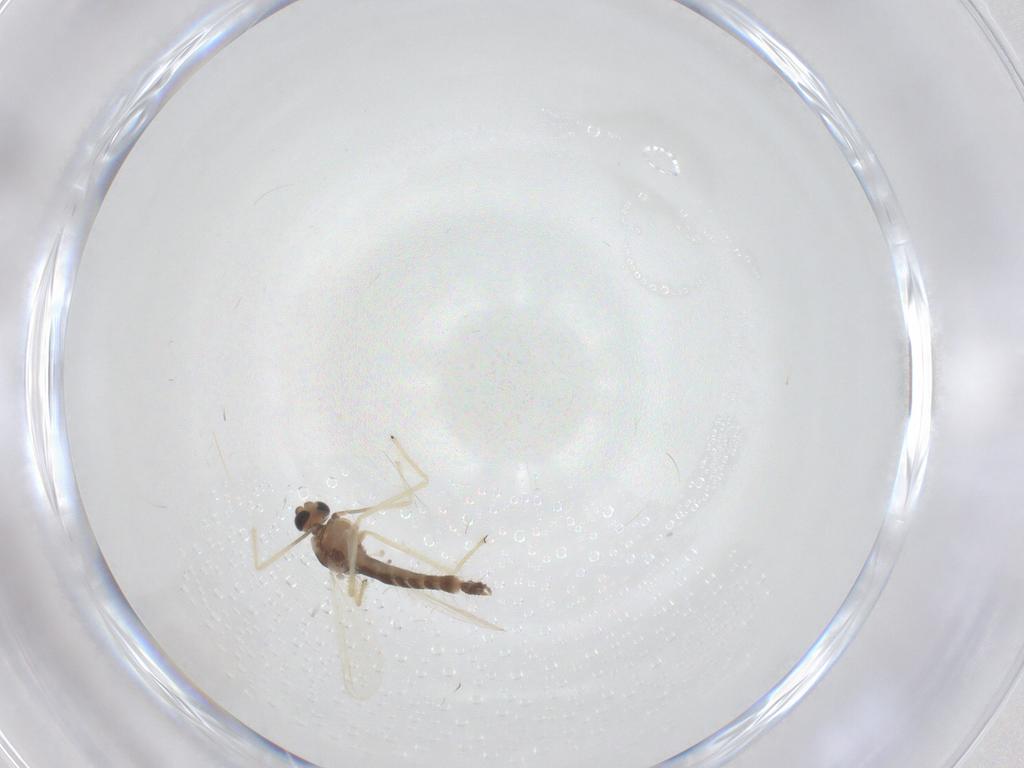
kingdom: Animalia
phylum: Arthropoda
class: Insecta
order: Diptera
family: Chironomidae
